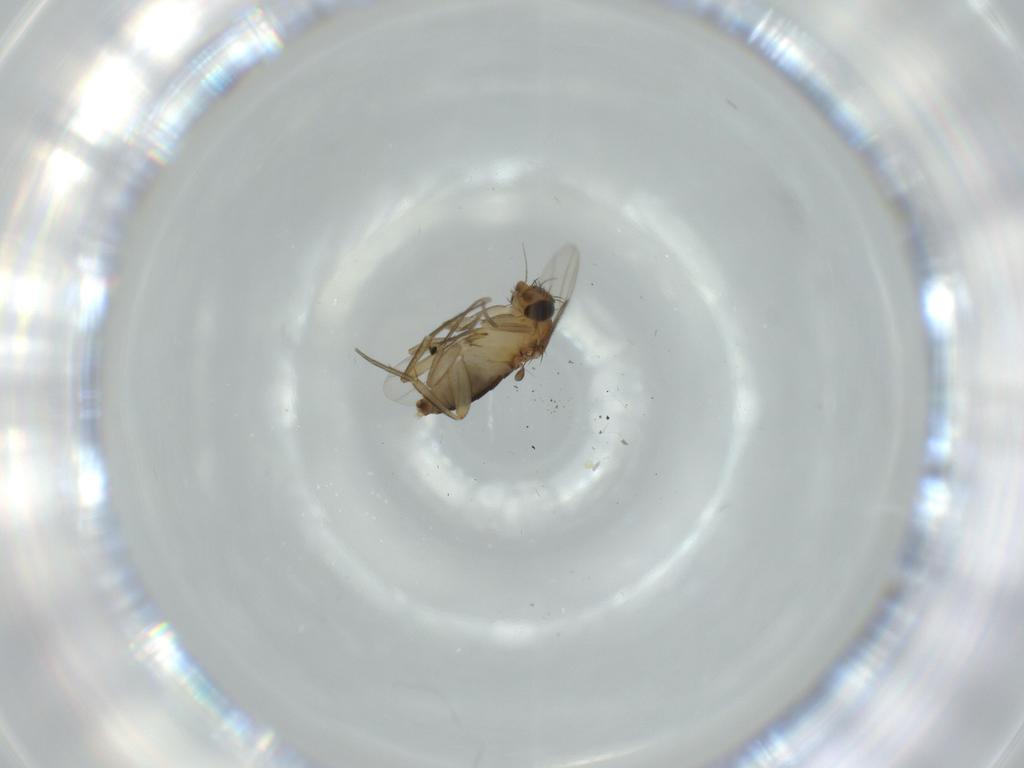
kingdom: Animalia
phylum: Arthropoda
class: Insecta
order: Diptera
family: Sciaridae
